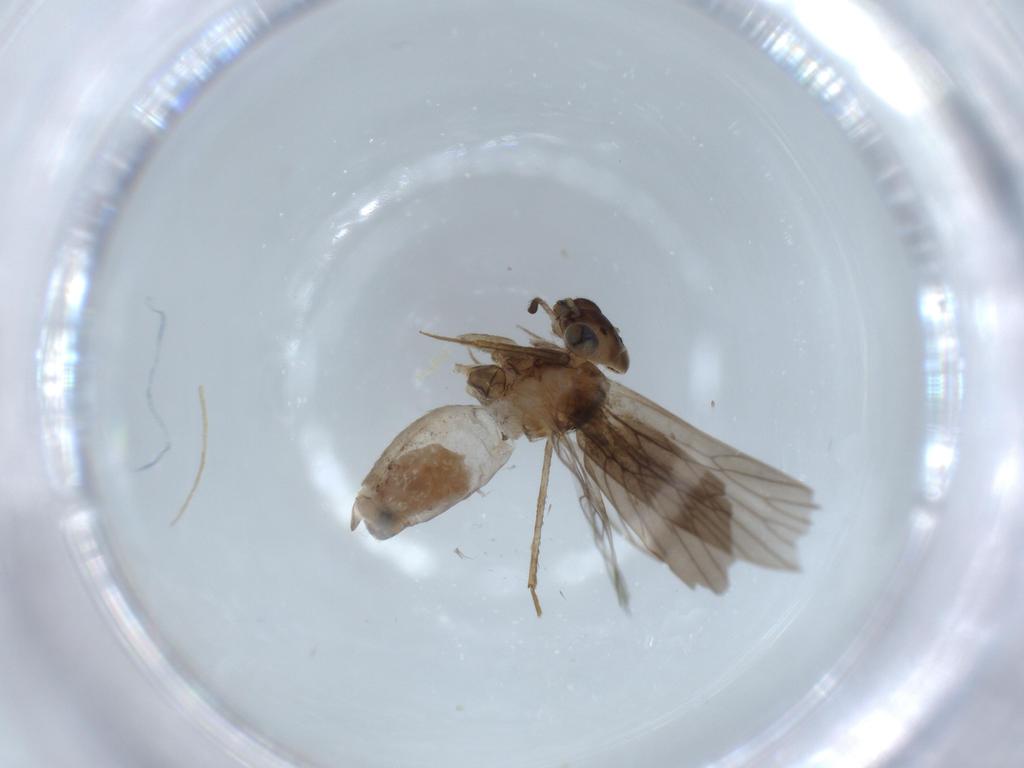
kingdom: Animalia
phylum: Arthropoda
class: Insecta
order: Psocodea
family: Lepidopsocidae
